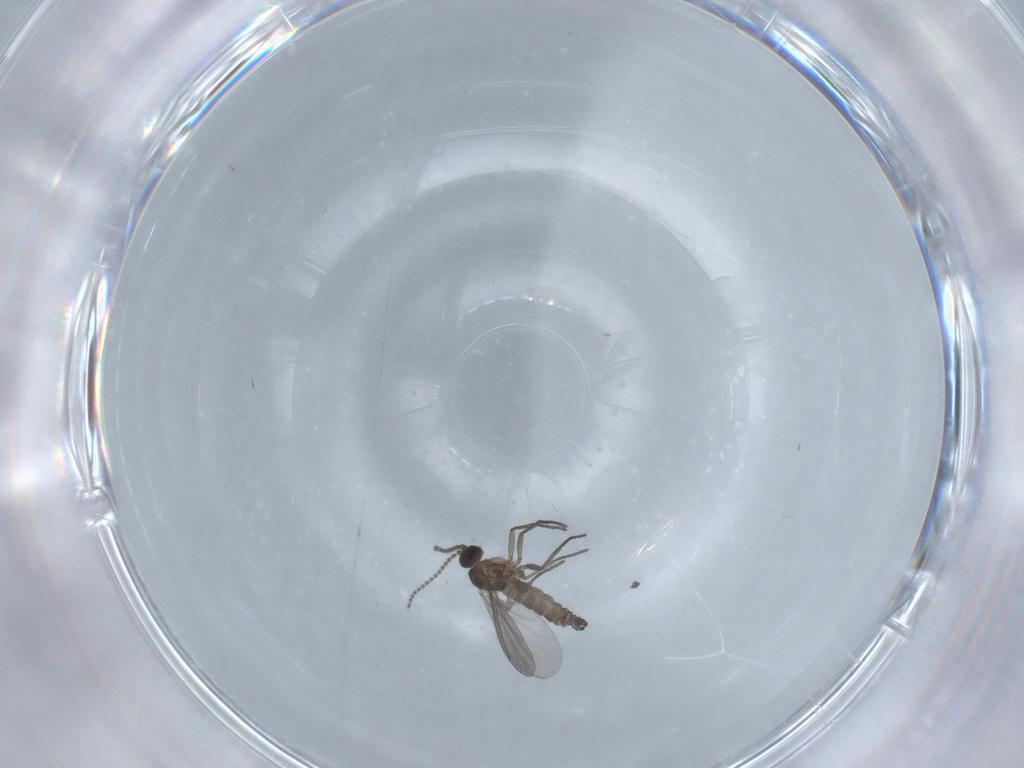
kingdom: Animalia
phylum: Arthropoda
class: Insecta
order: Diptera
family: Chironomidae
